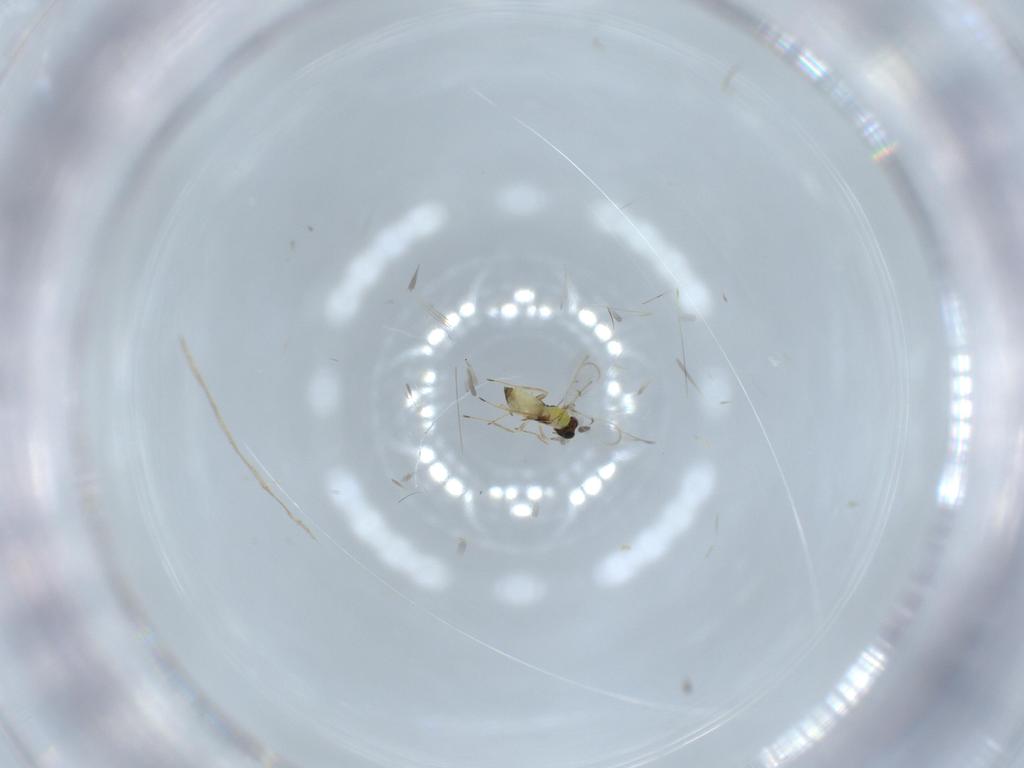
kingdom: Animalia
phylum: Arthropoda
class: Insecta
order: Hymenoptera
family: Trichogrammatidae
